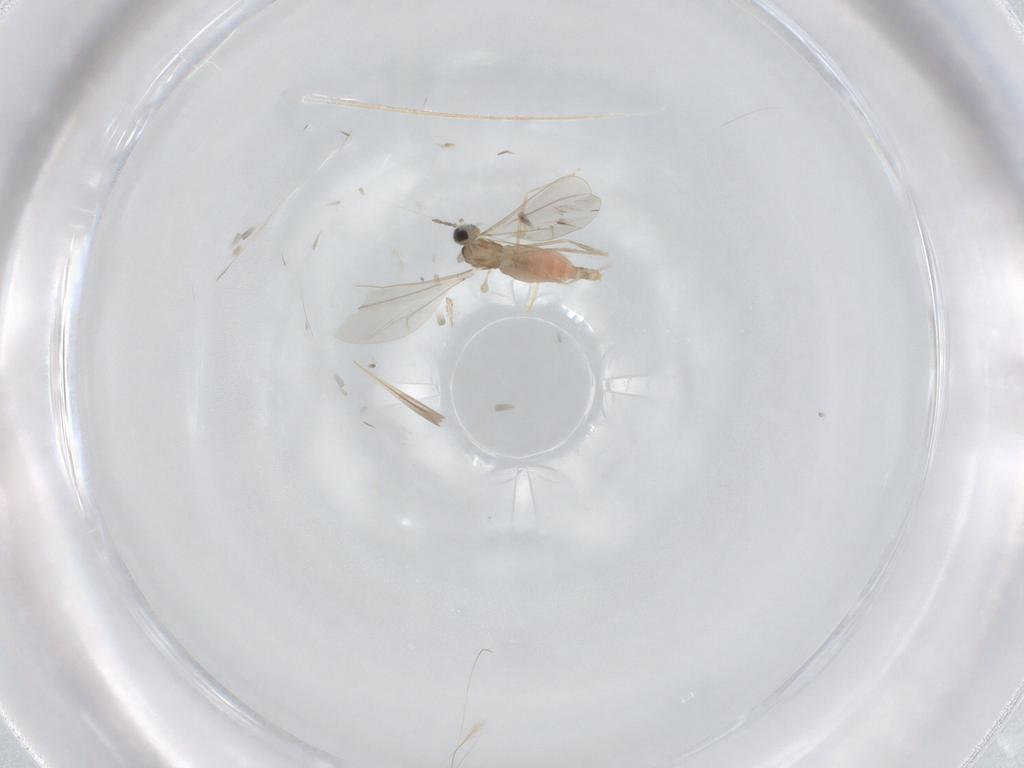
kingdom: Animalia
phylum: Arthropoda
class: Insecta
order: Diptera
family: Cecidomyiidae
